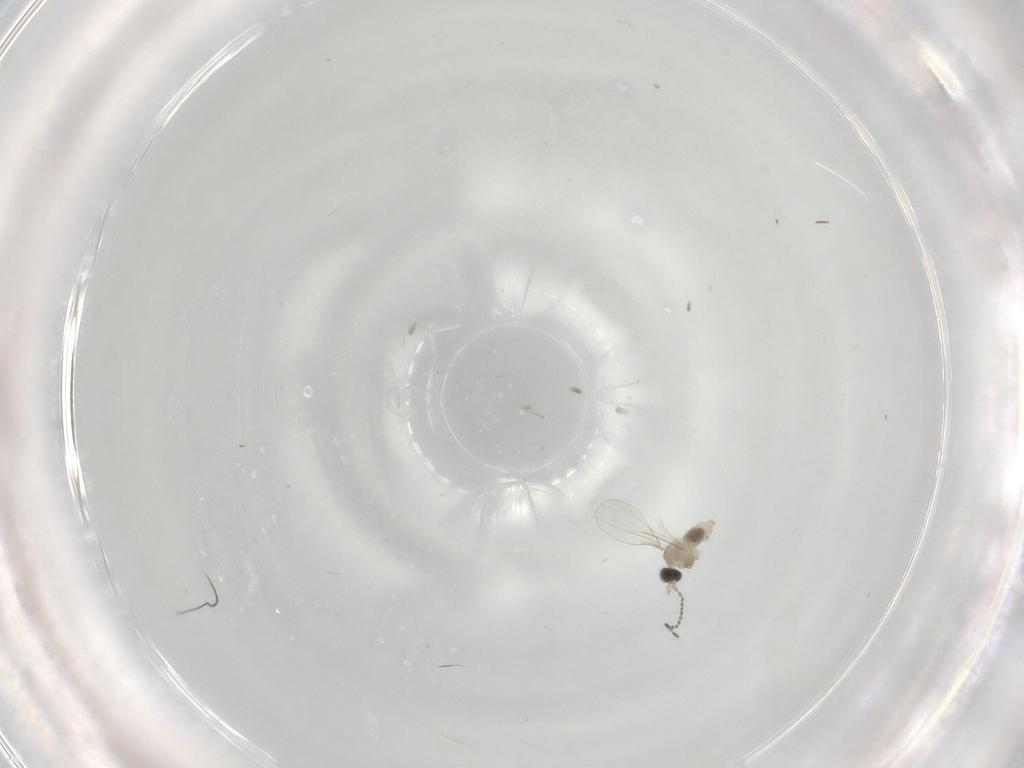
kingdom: Animalia
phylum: Arthropoda
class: Insecta
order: Diptera
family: Cecidomyiidae
